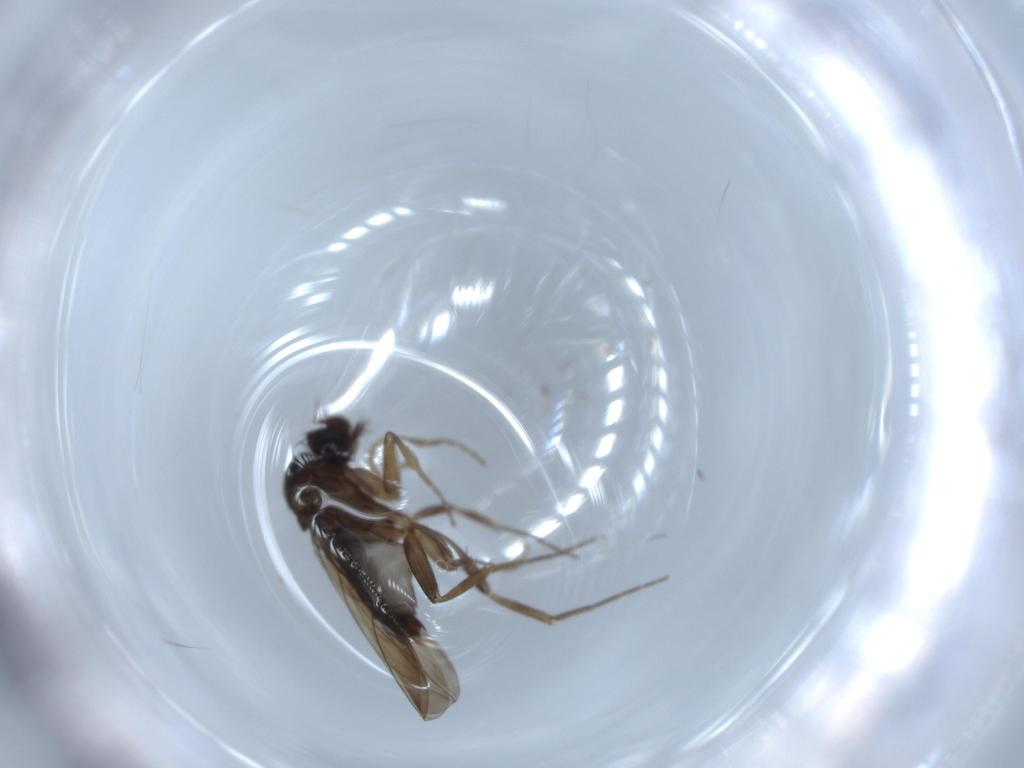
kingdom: Animalia
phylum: Arthropoda
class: Insecta
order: Diptera
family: Phoridae
